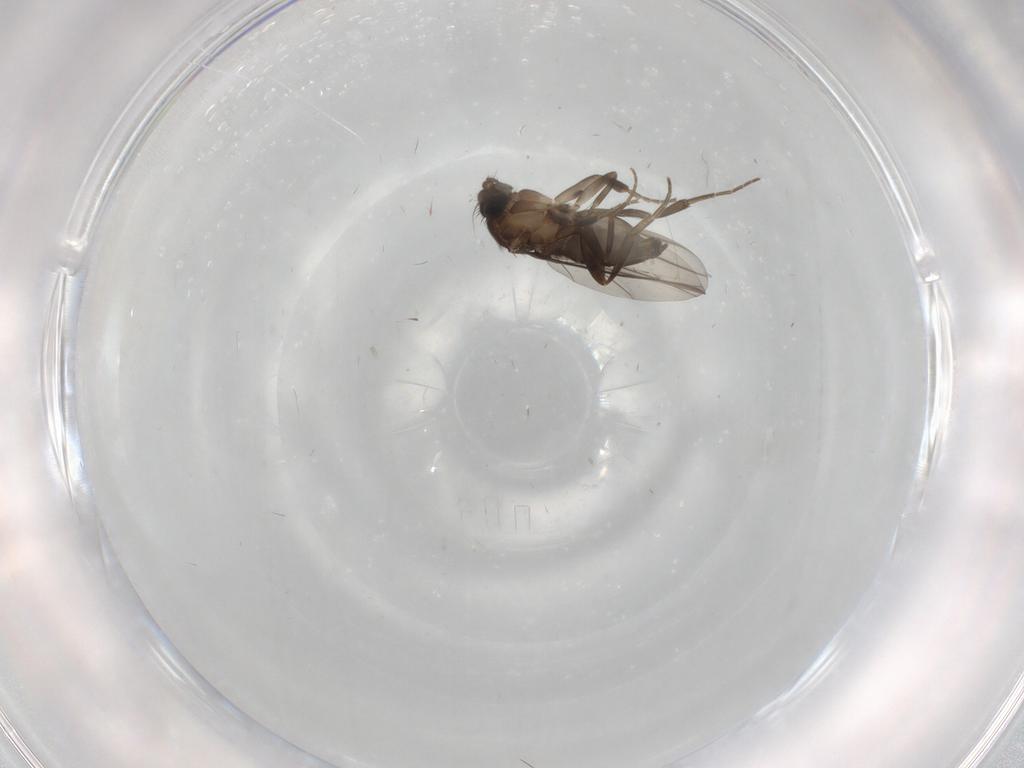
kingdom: Animalia
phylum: Arthropoda
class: Insecta
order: Diptera
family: Phoridae
